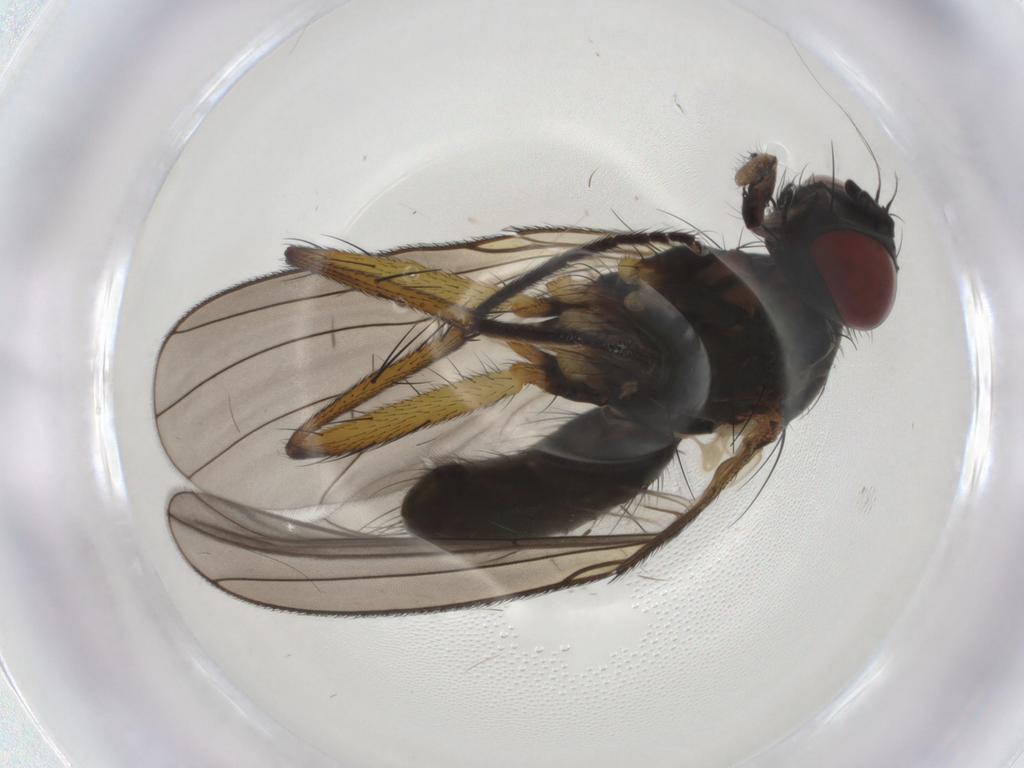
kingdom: Animalia
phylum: Arthropoda
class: Insecta
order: Diptera
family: Muscidae
